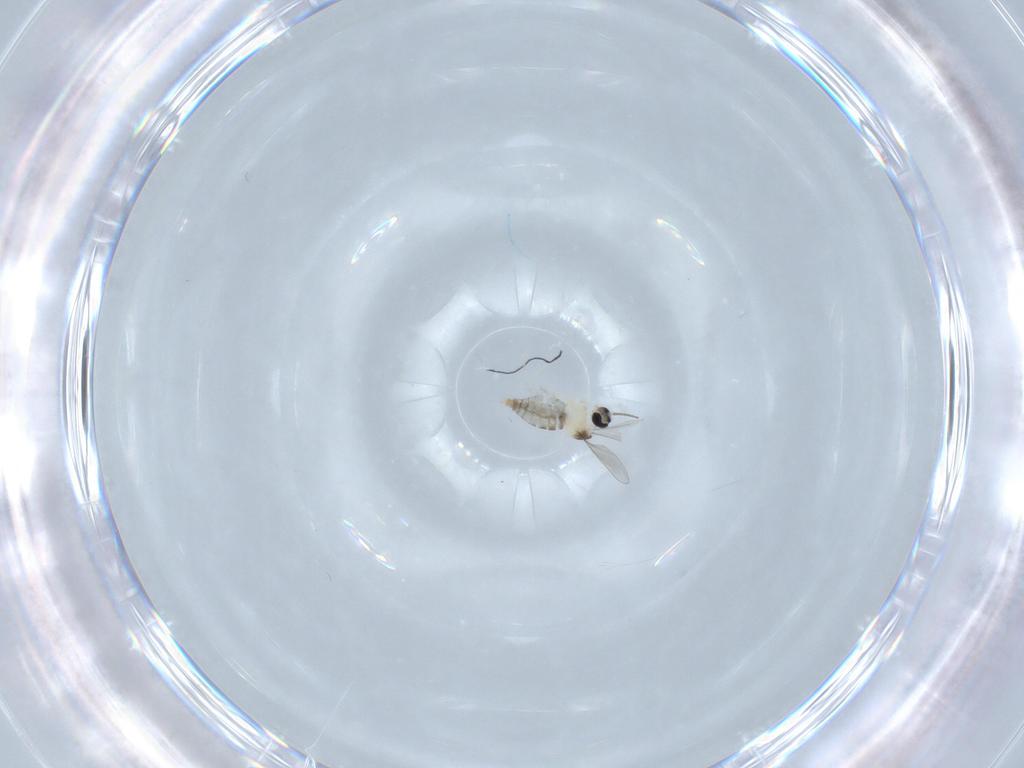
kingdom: Animalia
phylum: Arthropoda
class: Insecta
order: Diptera
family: Cecidomyiidae
